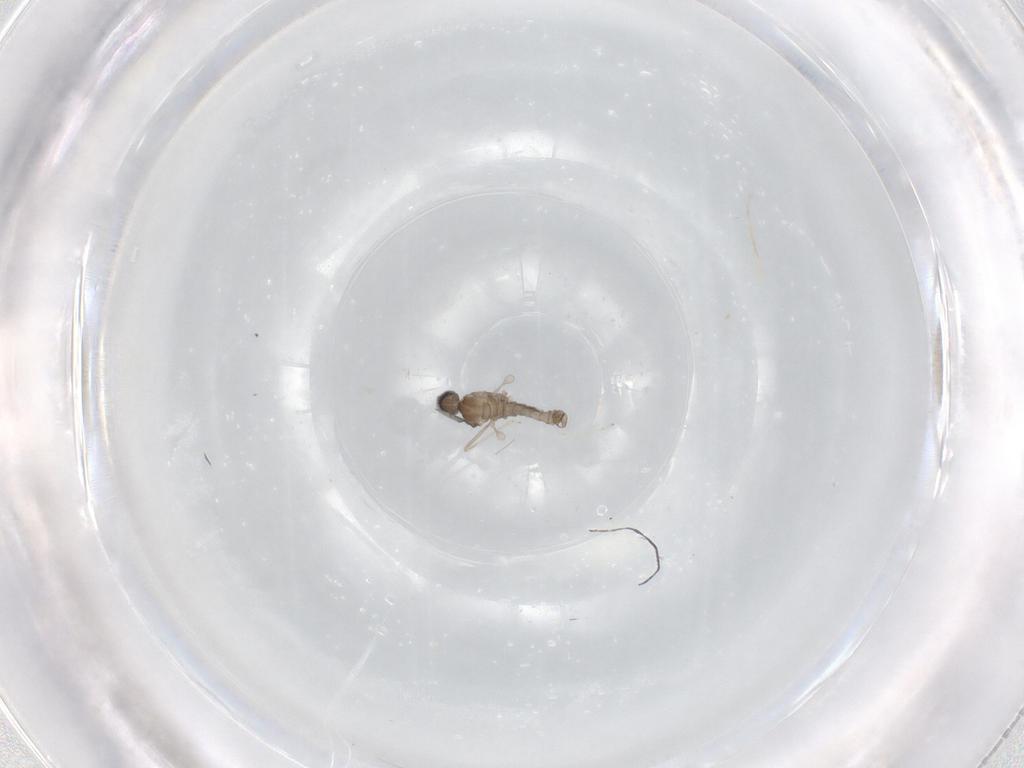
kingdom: Animalia
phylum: Arthropoda
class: Insecta
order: Diptera
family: Cecidomyiidae
